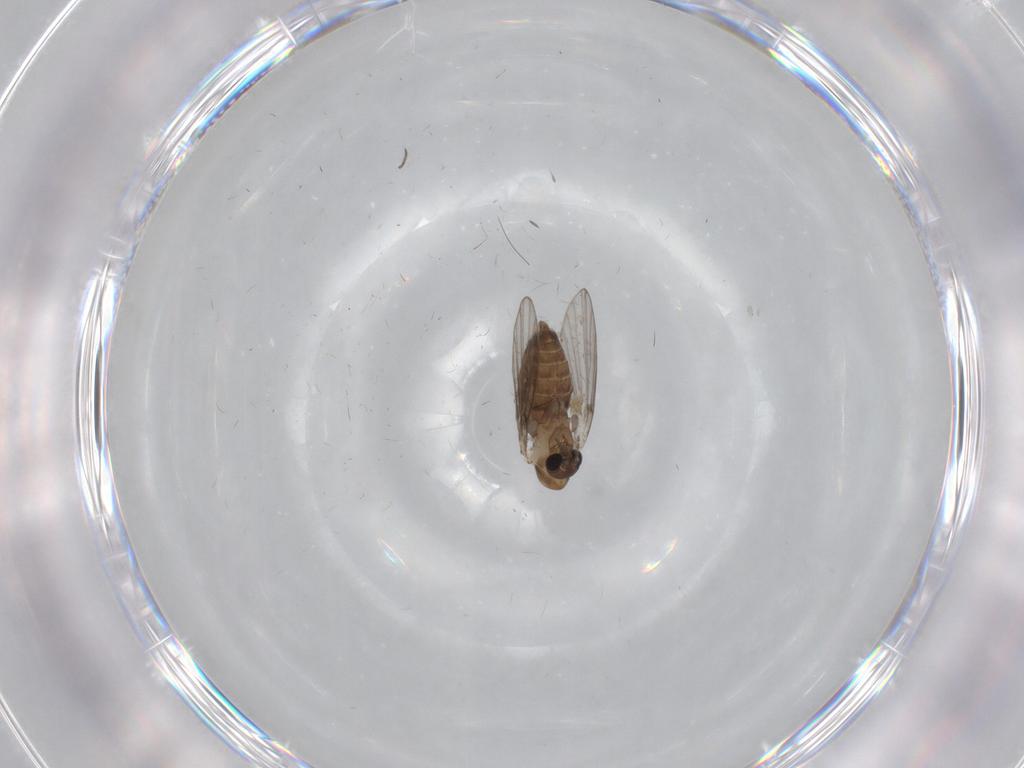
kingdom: Animalia
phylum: Arthropoda
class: Insecta
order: Diptera
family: Psychodidae
